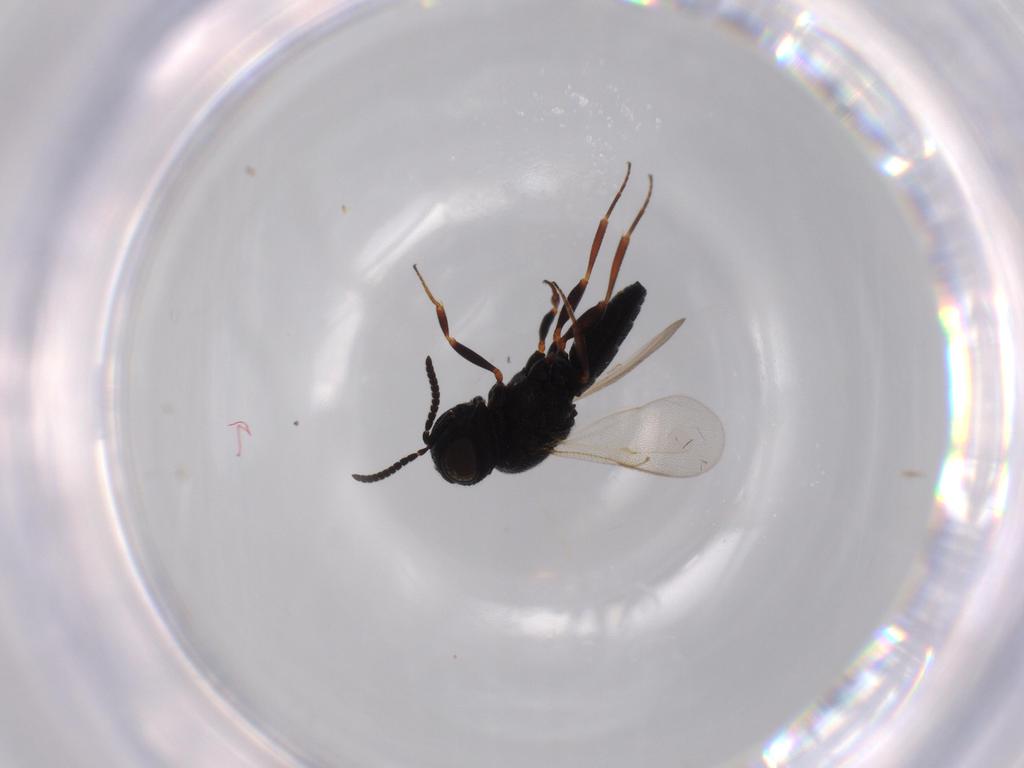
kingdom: Animalia
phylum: Arthropoda
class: Insecta
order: Hymenoptera
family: Scelionidae
